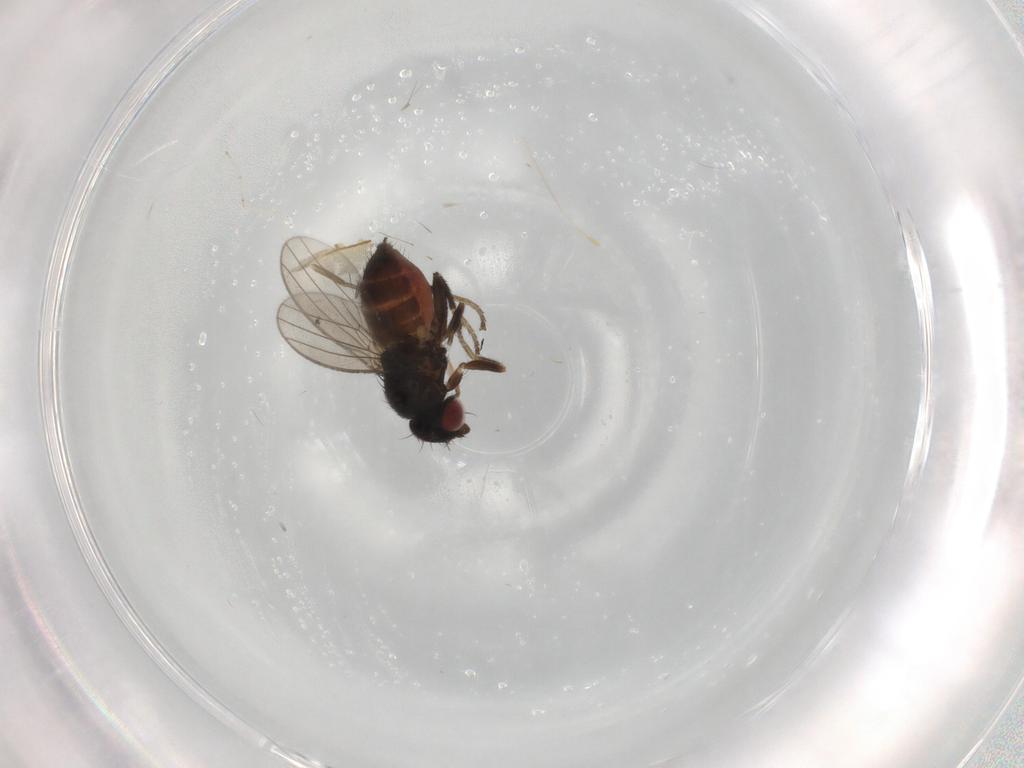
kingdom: Animalia
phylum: Arthropoda
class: Insecta
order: Diptera
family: Milichiidae
